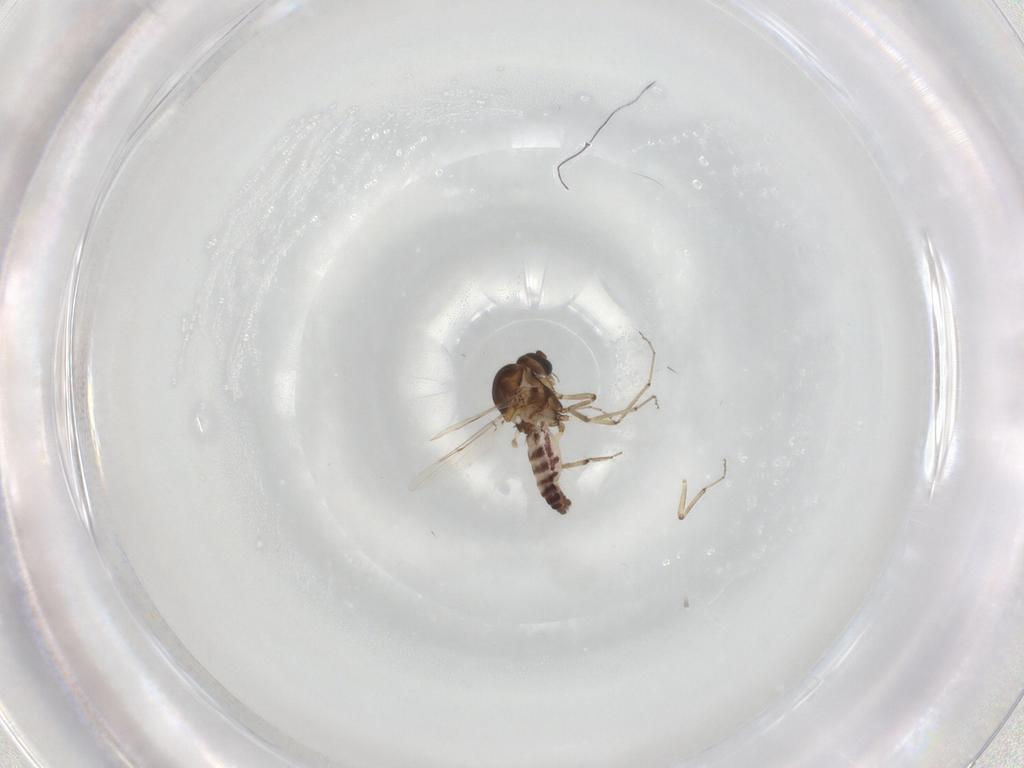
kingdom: Animalia
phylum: Arthropoda
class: Insecta
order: Diptera
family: Ceratopogonidae
